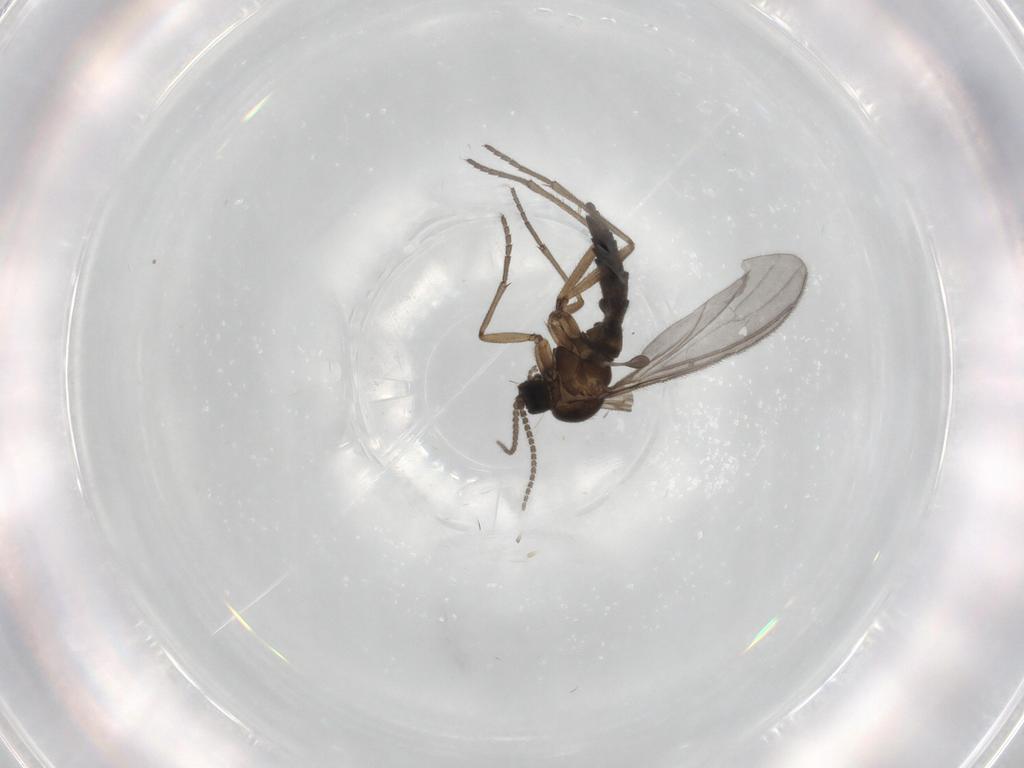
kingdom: Animalia
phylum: Arthropoda
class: Insecta
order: Diptera
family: Sciaridae
